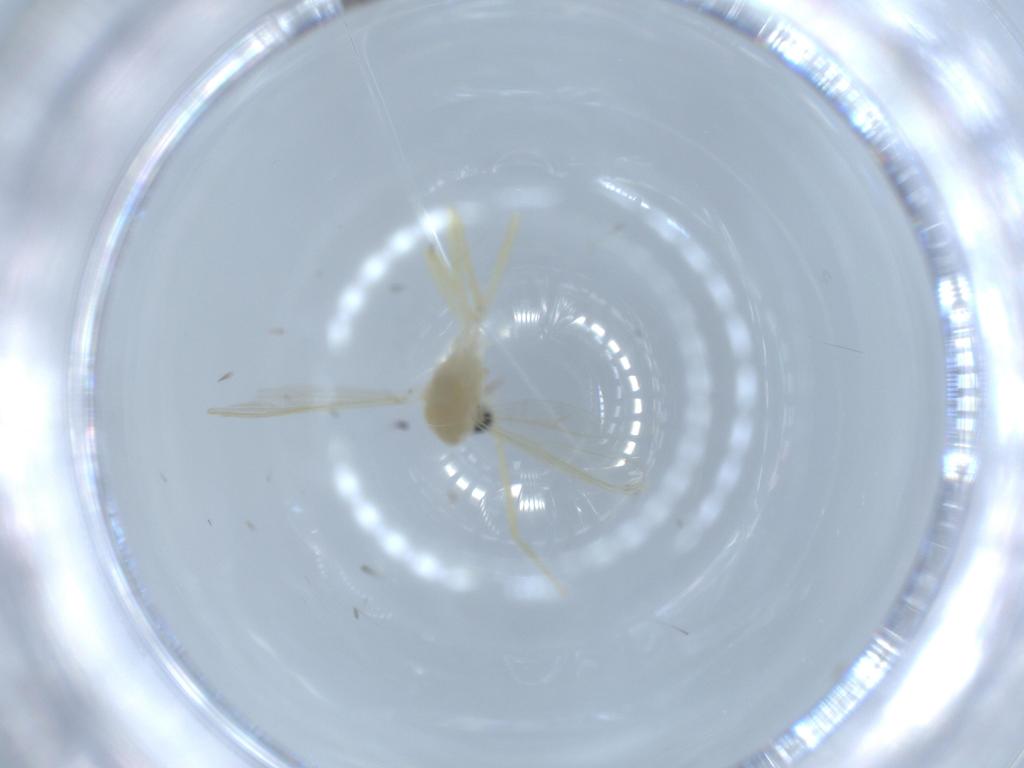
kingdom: Animalia
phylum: Arthropoda
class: Insecta
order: Diptera
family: Chironomidae
